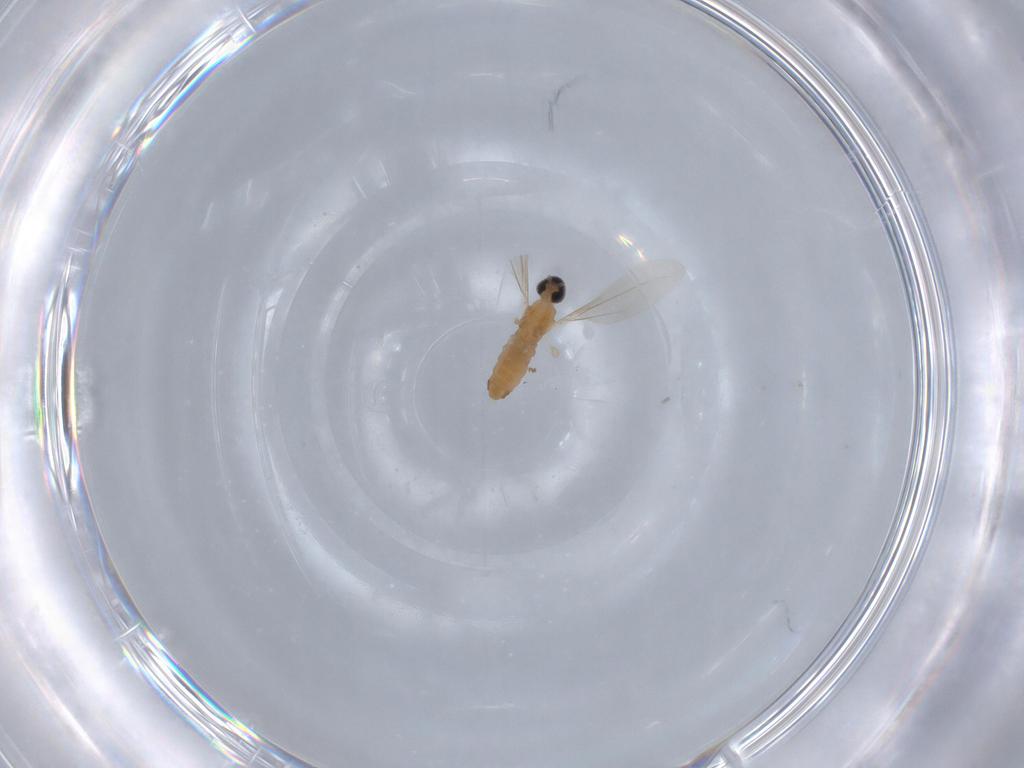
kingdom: Animalia
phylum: Arthropoda
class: Insecta
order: Diptera
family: Cecidomyiidae
